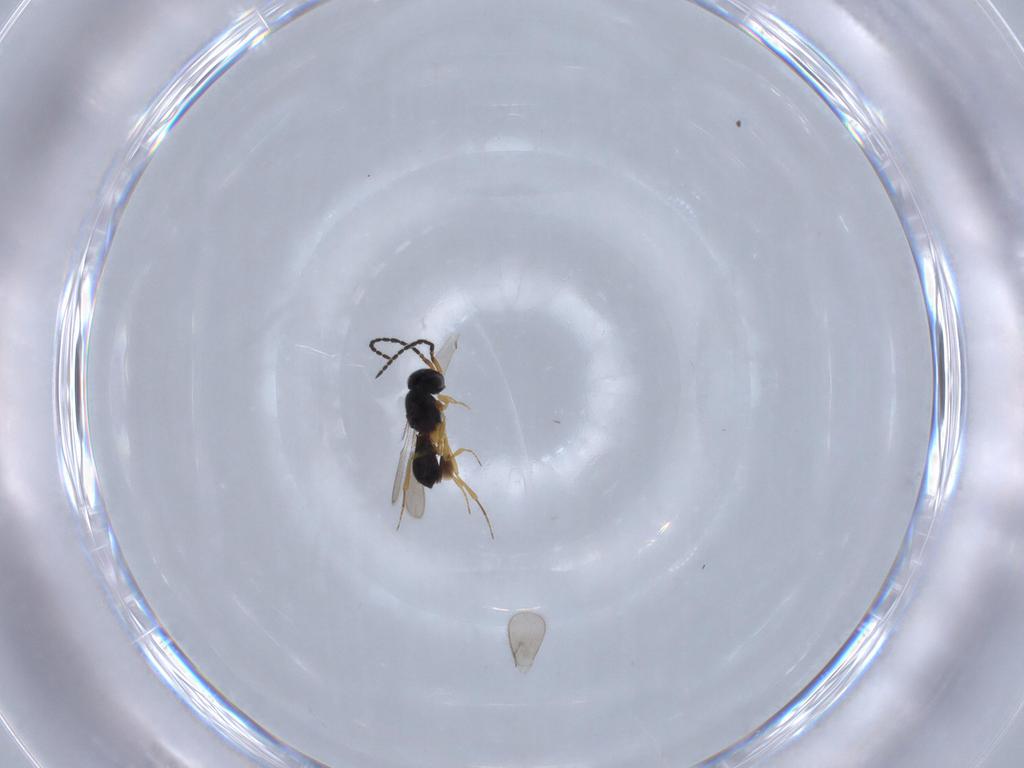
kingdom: Animalia
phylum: Arthropoda
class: Insecta
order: Hymenoptera
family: Scelionidae
